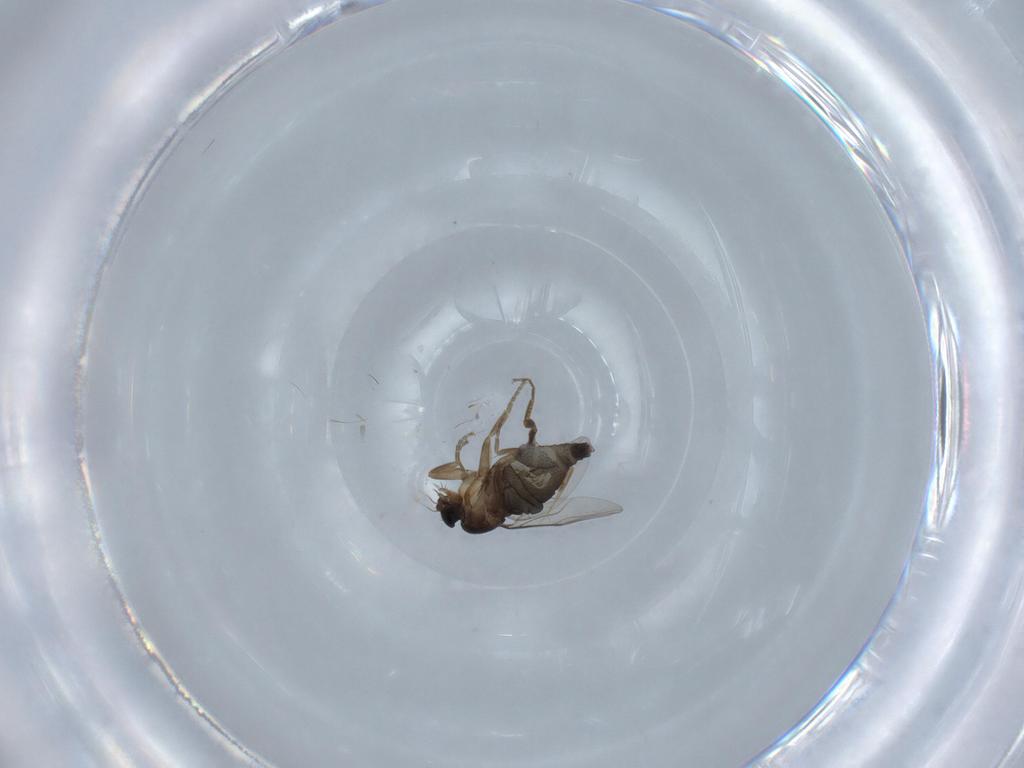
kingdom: Animalia
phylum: Arthropoda
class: Insecta
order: Diptera
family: Phoridae
